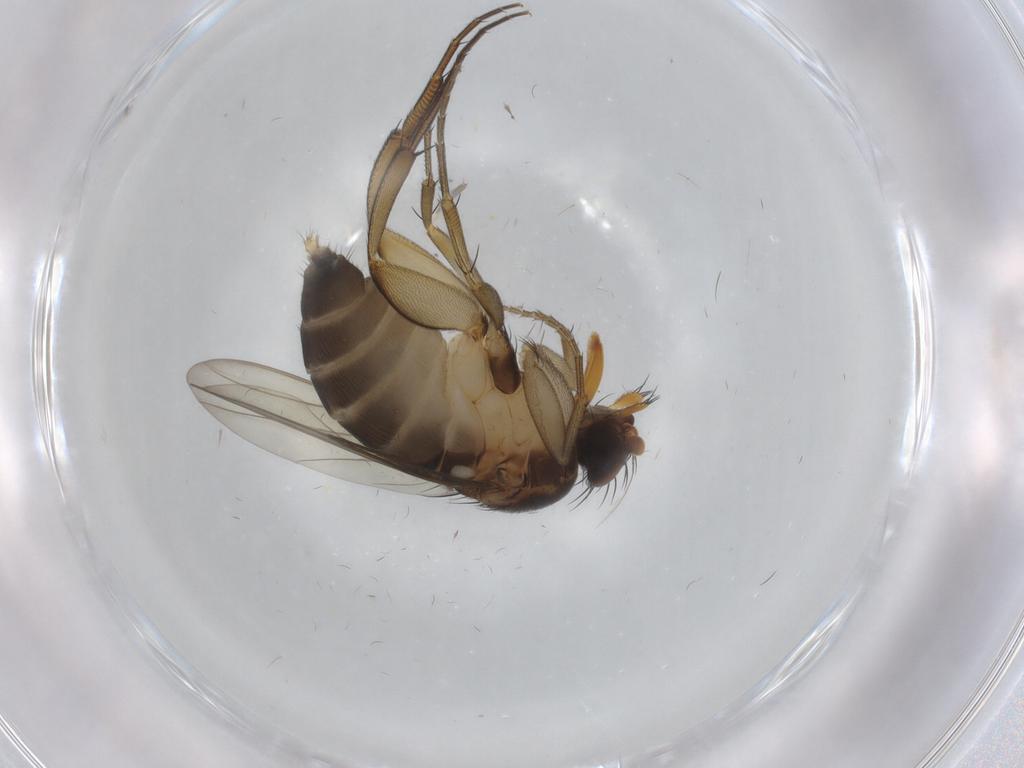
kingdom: Animalia
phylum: Arthropoda
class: Insecta
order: Diptera
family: Phoridae
